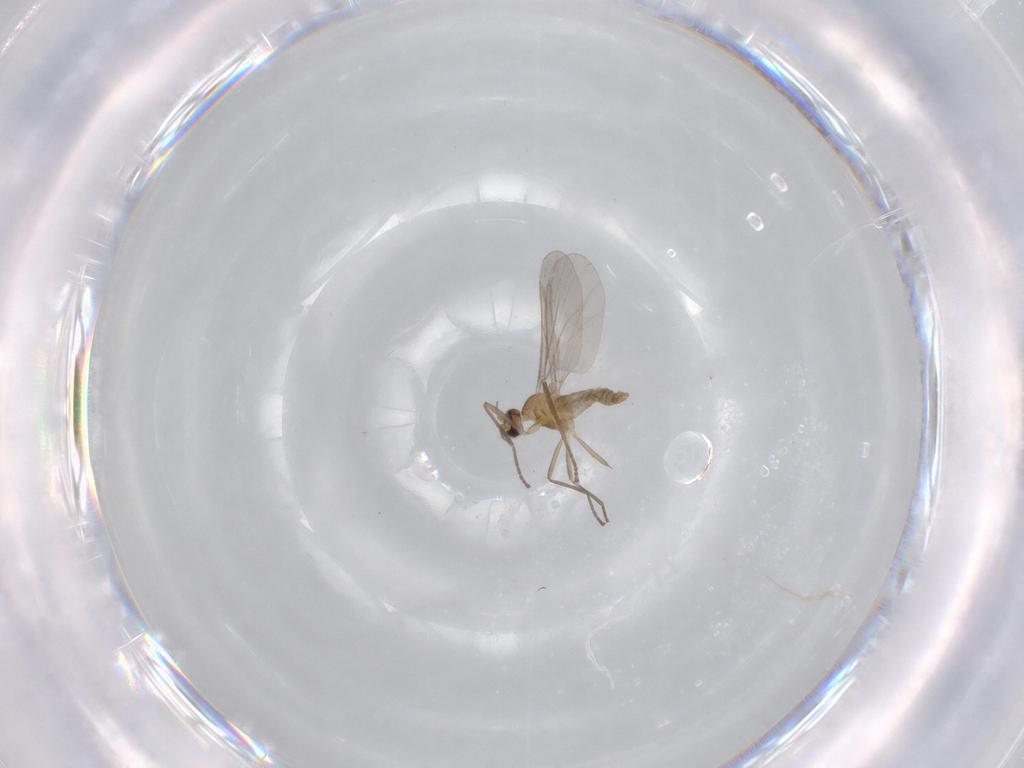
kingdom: Animalia
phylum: Arthropoda
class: Insecta
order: Diptera
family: Cecidomyiidae
